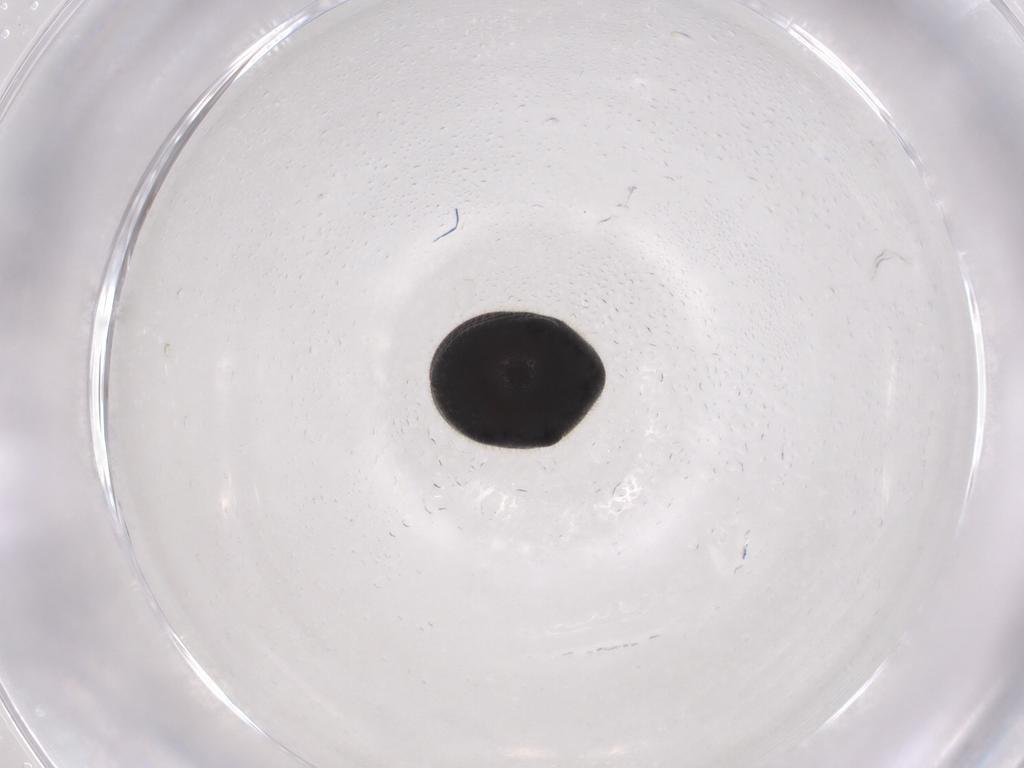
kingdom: Animalia
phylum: Arthropoda
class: Insecta
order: Coleoptera
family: Ptinidae
